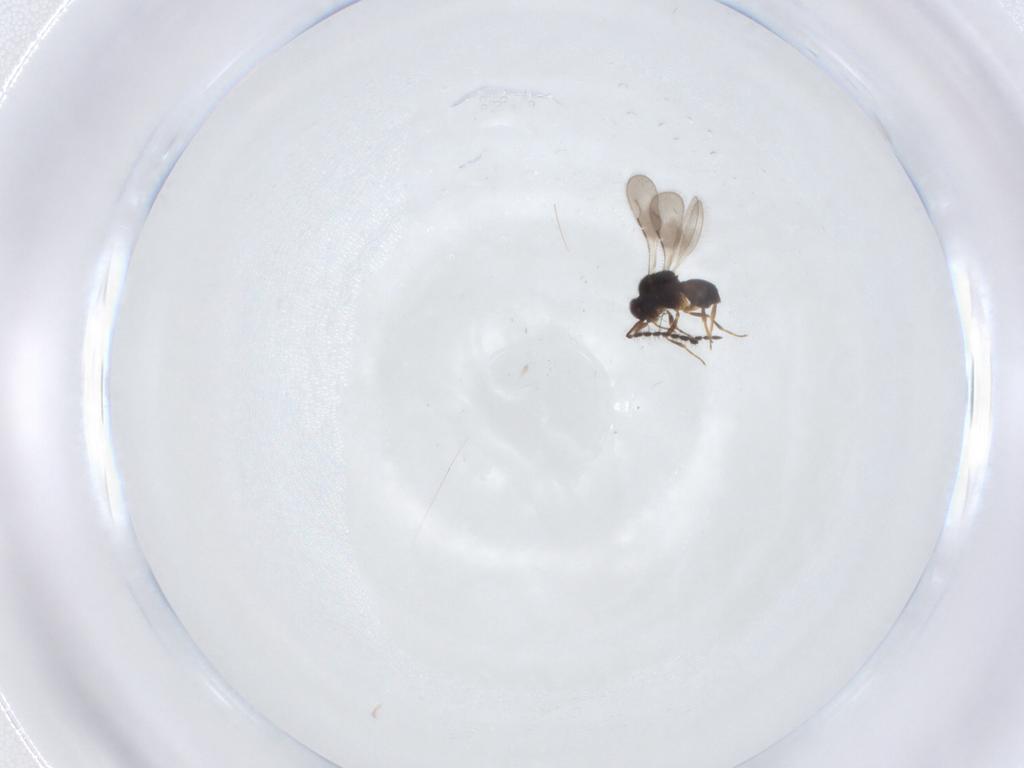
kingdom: Animalia
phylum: Arthropoda
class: Insecta
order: Hymenoptera
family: Ceraphronidae
